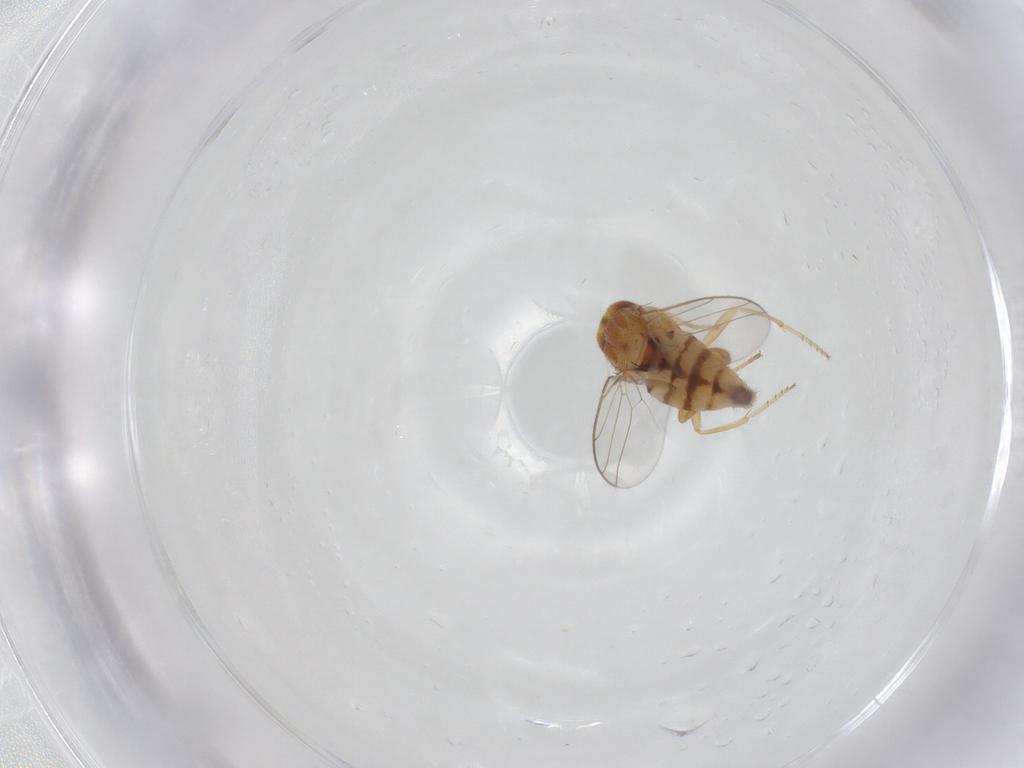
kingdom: Animalia
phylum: Arthropoda
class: Insecta
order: Diptera
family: Chloropidae
